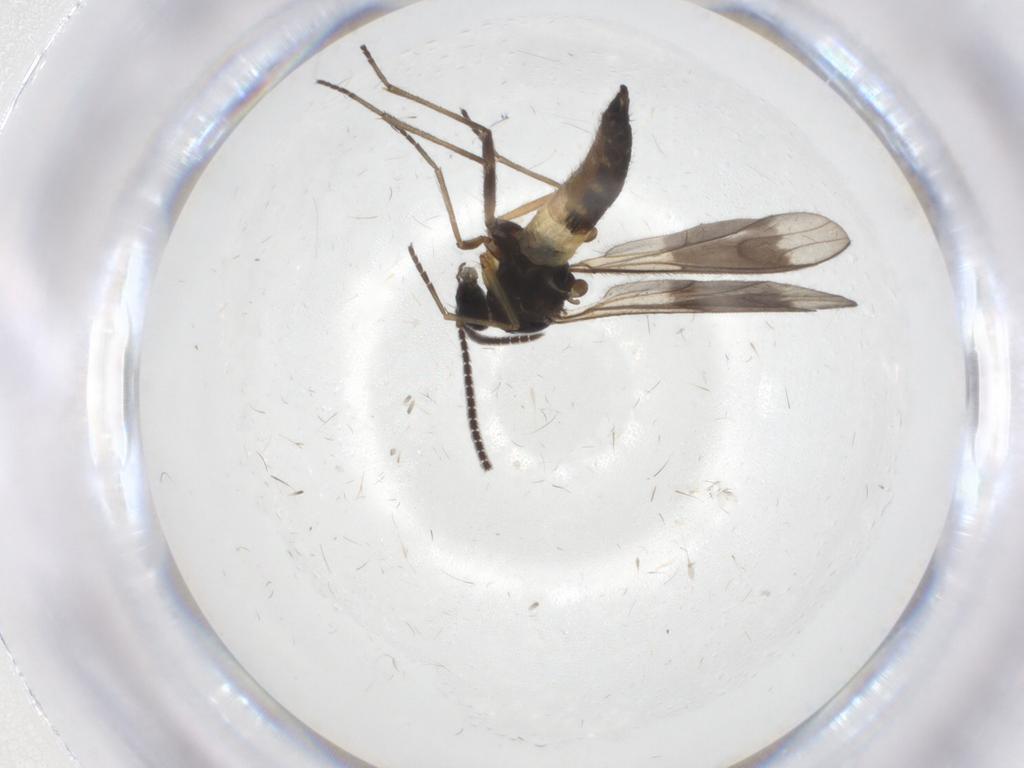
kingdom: Animalia
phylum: Arthropoda
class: Insecta
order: Diptera
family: Sciaridae
